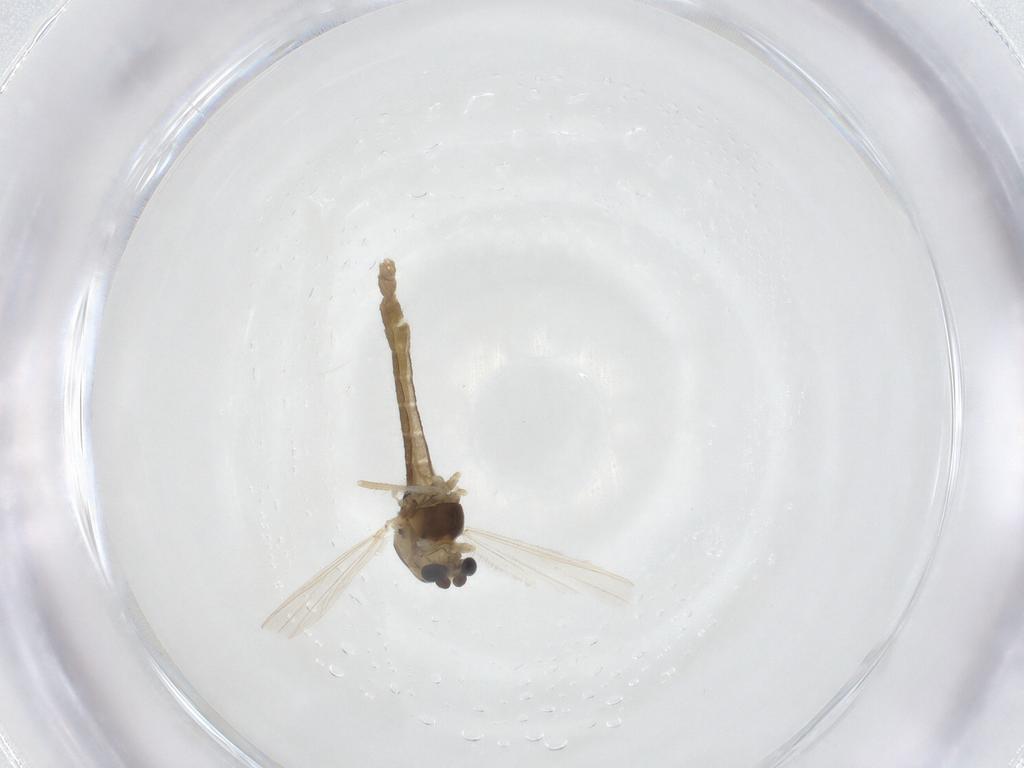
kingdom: Animalia
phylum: Arthropoda
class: Insecta
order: Diptera
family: Chironomidae
